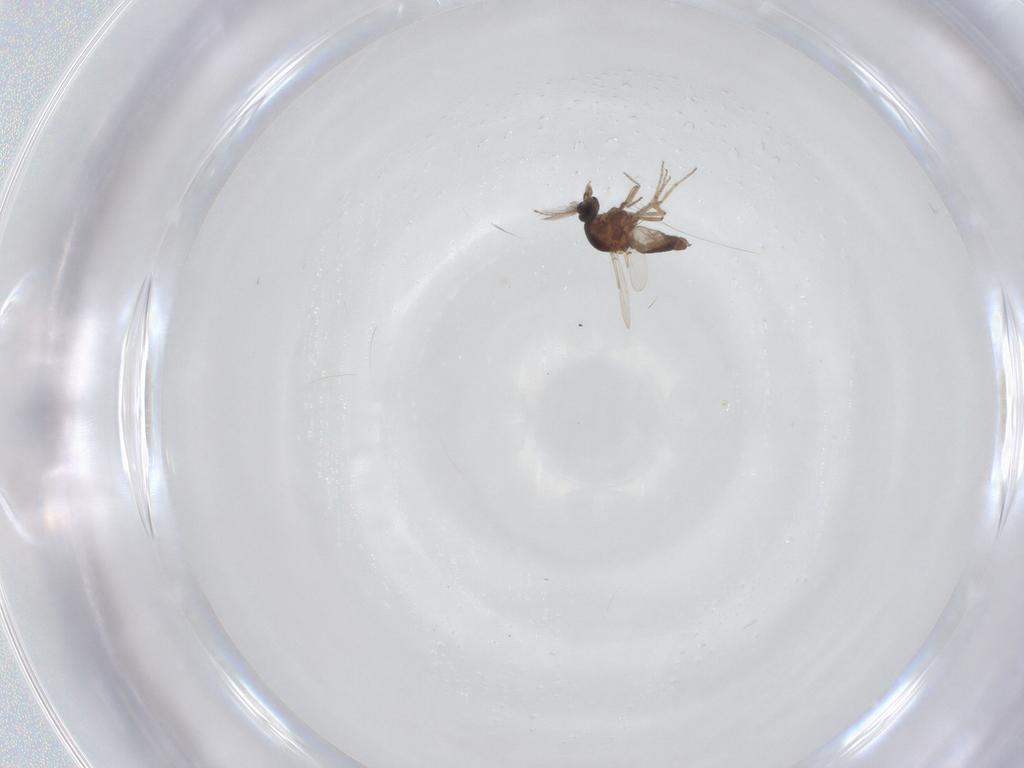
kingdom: Animalia
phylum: Arthropoda
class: Insecta
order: Diptera
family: Ceratopogonidae
